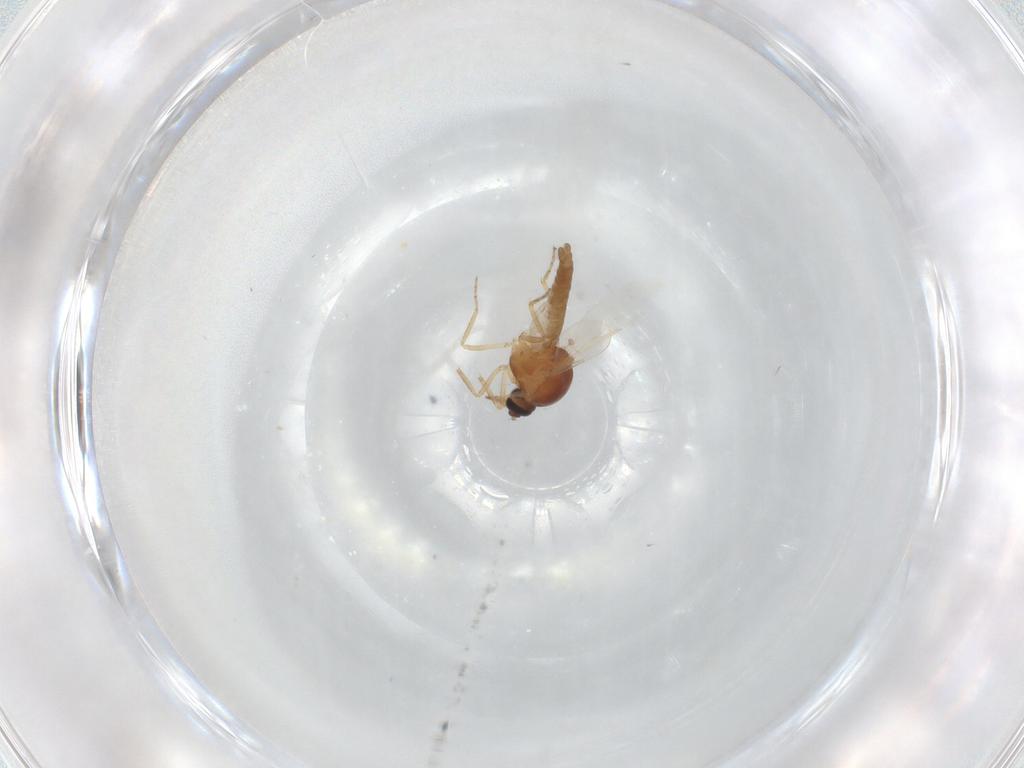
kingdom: Animalia
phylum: Arthropoda
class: Insecta
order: Diptera
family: Ceratopogonidae
